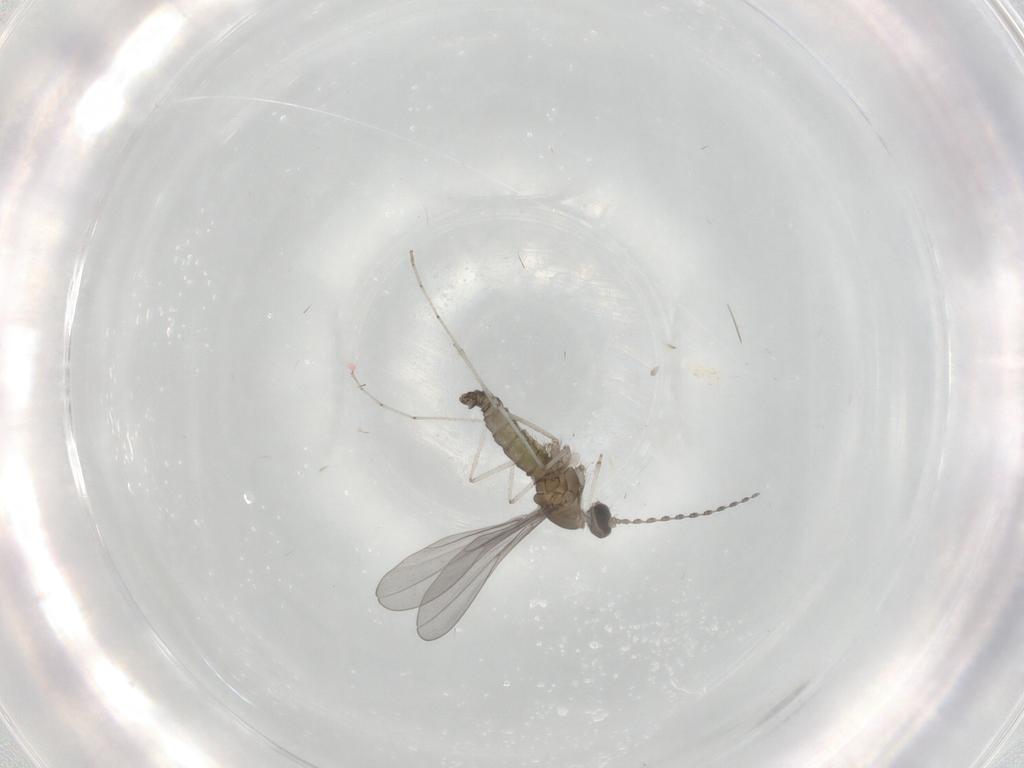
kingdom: Animalia
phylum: Arthropoda
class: Insecta
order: Diptera
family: Cecidomyiidae
